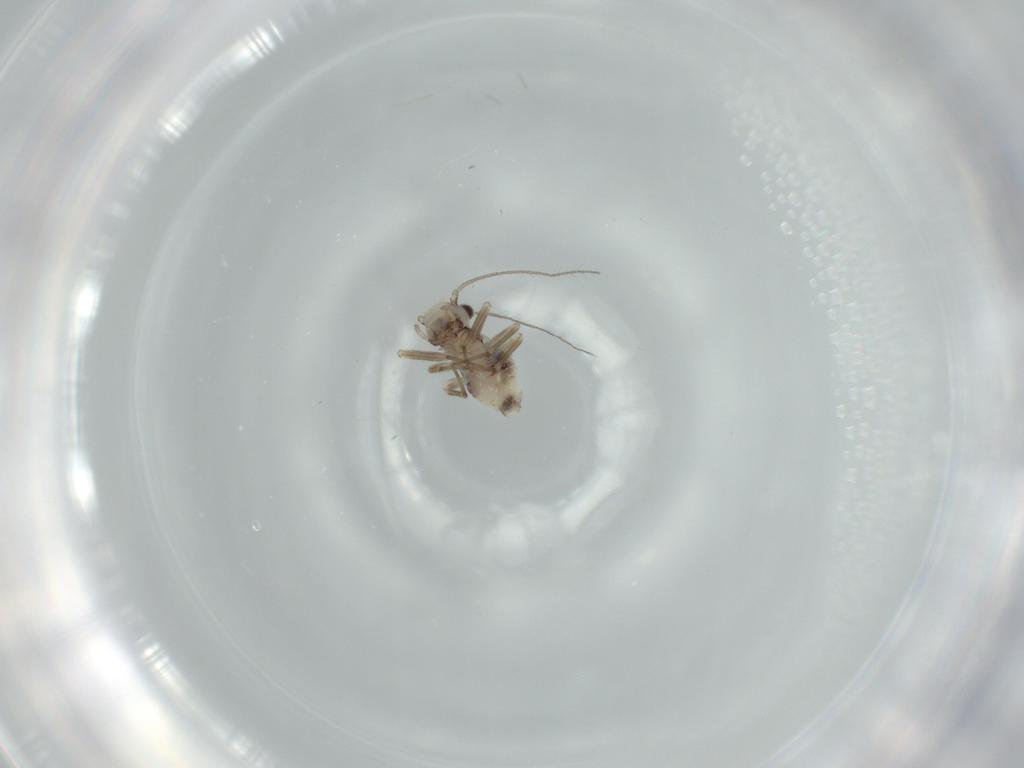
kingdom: Animalia
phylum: Arthropoda
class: Insecta
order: Psocodea
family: Epipsocidae
